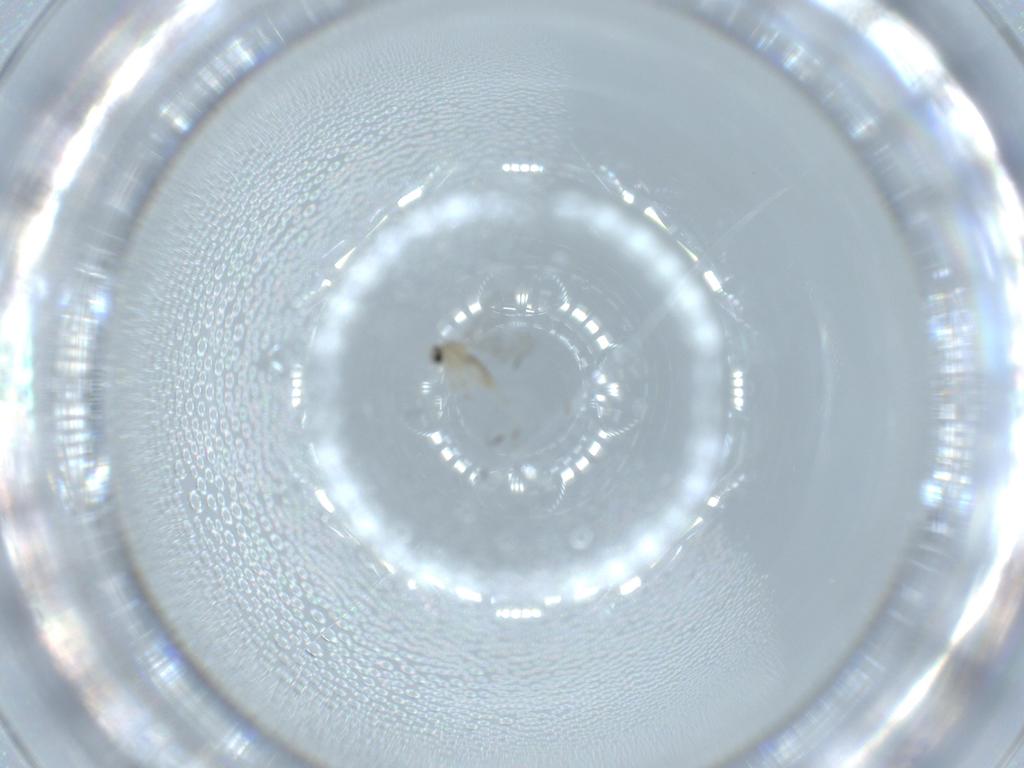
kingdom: Animalia
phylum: Arthropoda
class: Insecta
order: Diptera
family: Cecidomyiidae
